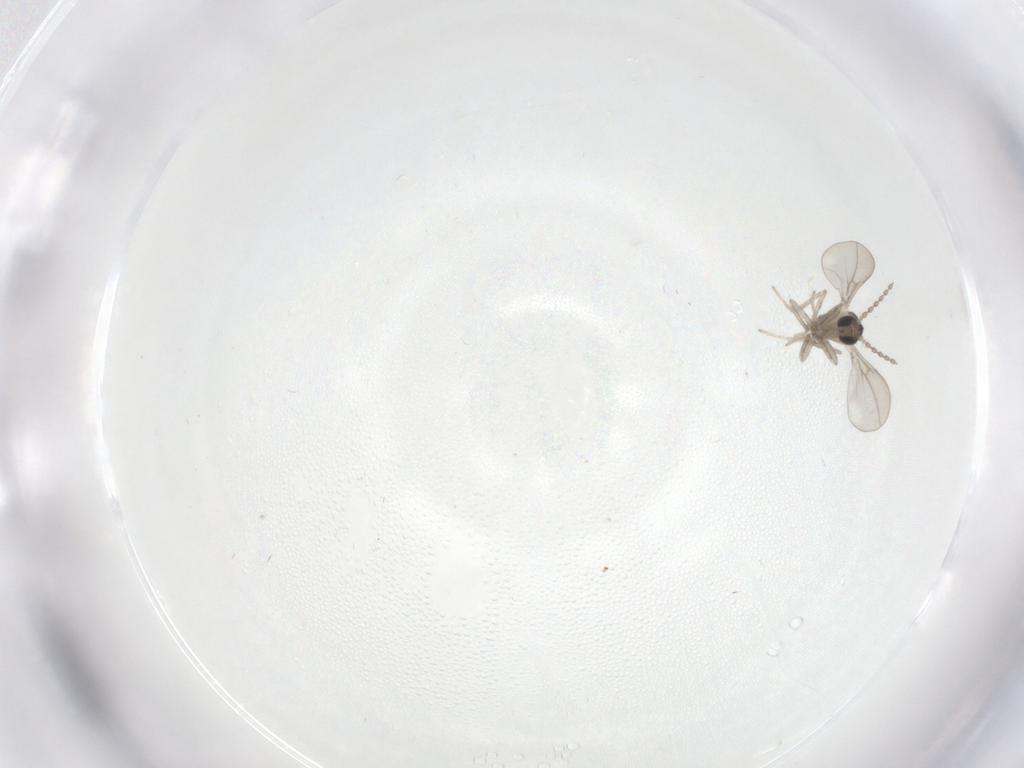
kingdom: Animalia
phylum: Arthropoda
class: Insecta
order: Diptera
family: Cecidomyiidae
